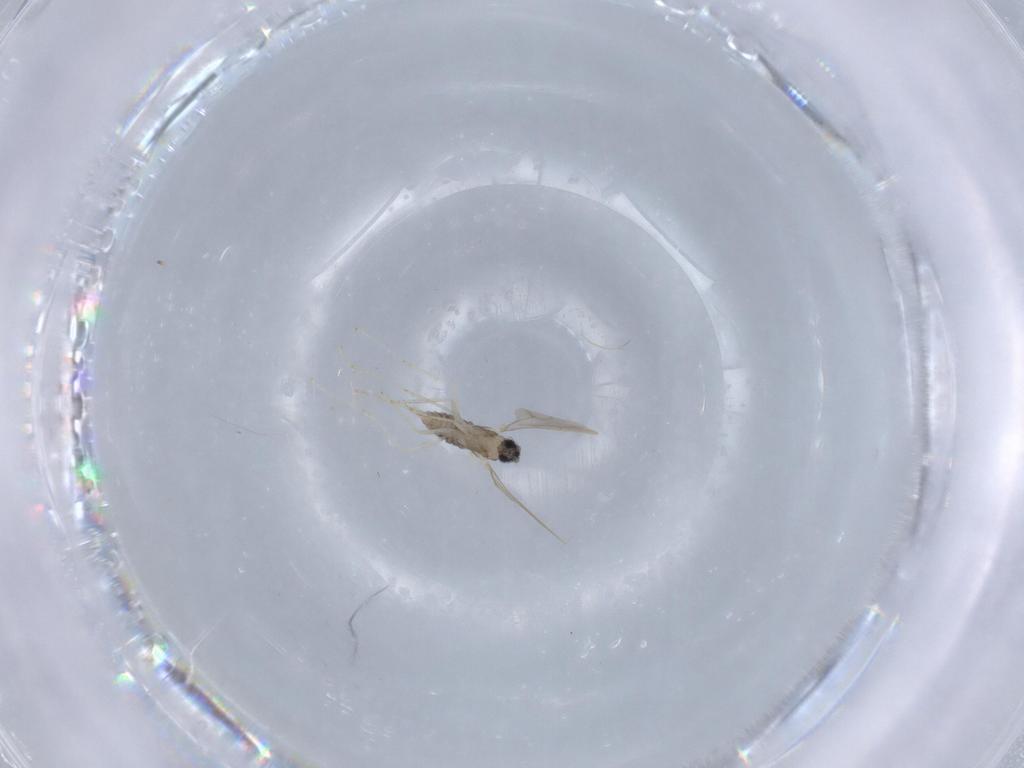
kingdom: Animalia
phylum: Arthropoda
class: Insecta
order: Diptera
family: Cecidomyiidae
